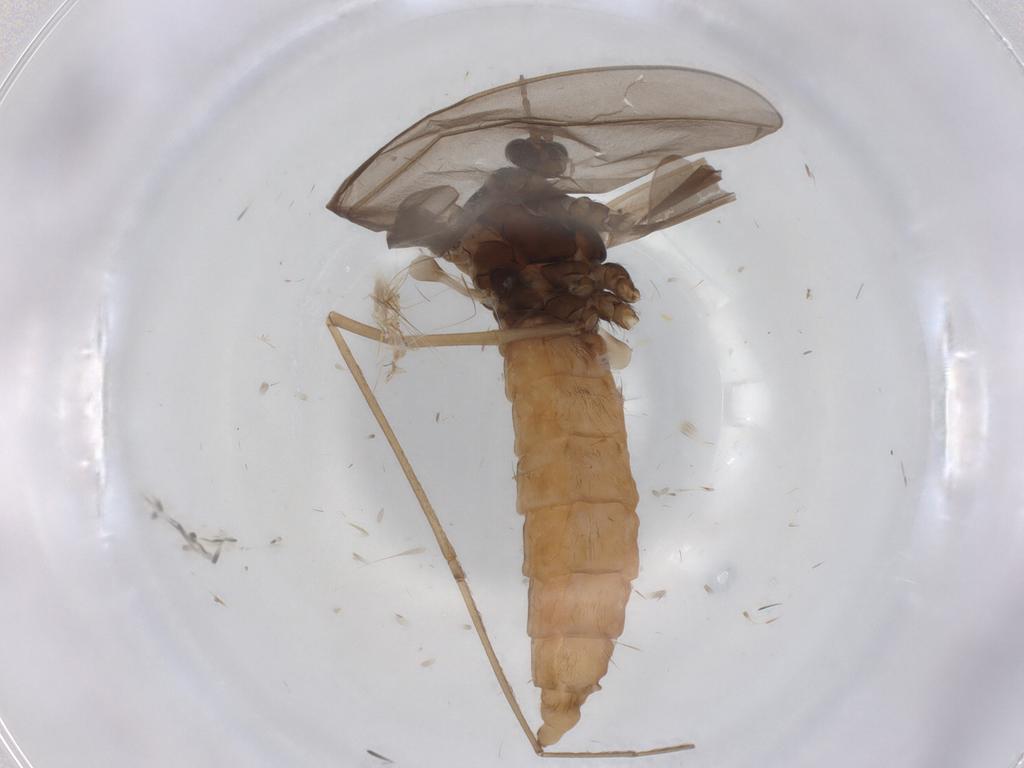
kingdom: Animalia
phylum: Arthropoda
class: Insecta
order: Diptera
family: Cecidomyiidae
